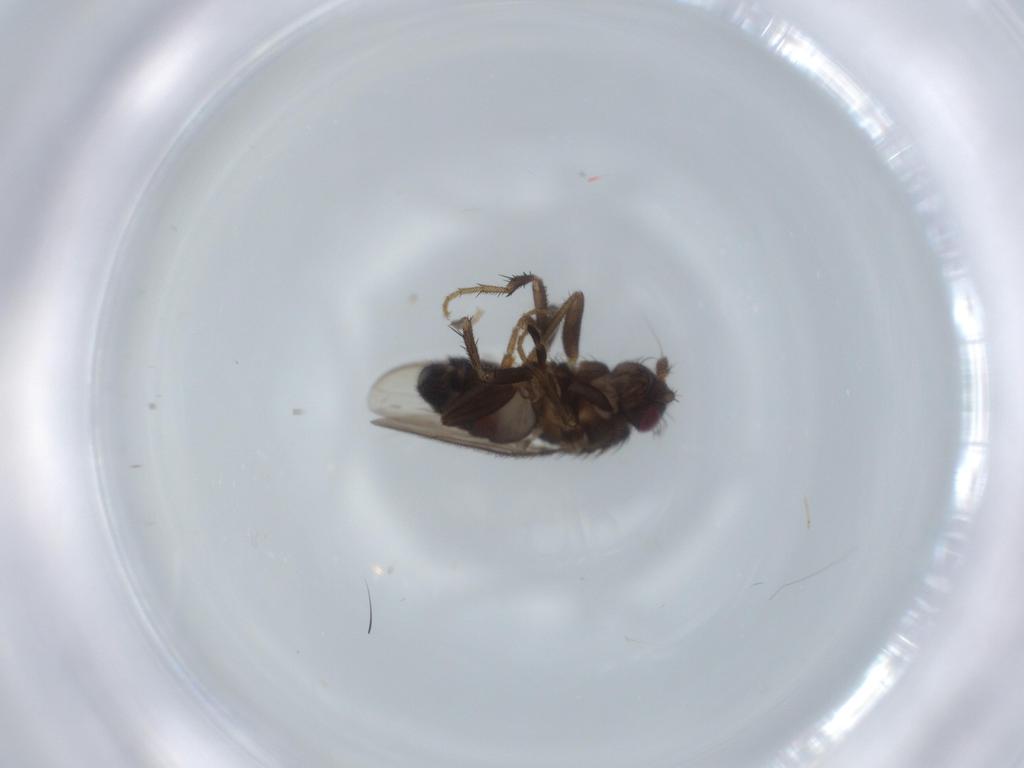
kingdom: Animalia
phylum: Arthropoda
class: Insecta
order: Diptera
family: Sphaeroceridae
